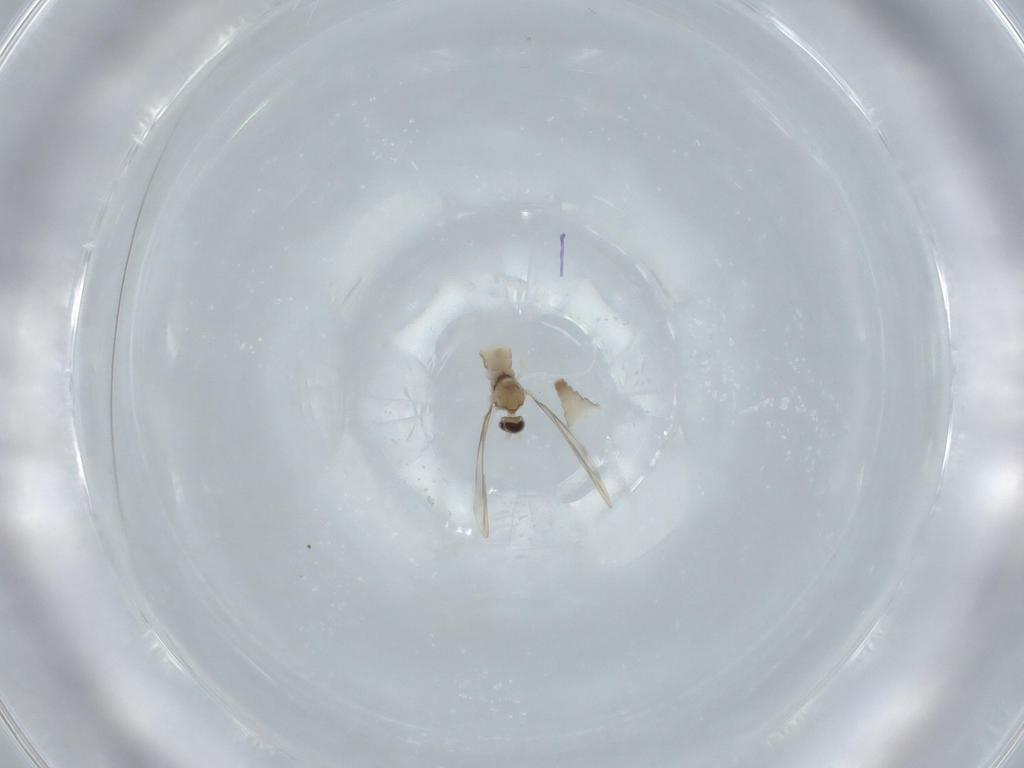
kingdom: Animalia
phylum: Arthropoda
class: Insecta
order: Diptera
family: Cecidomyiidae
